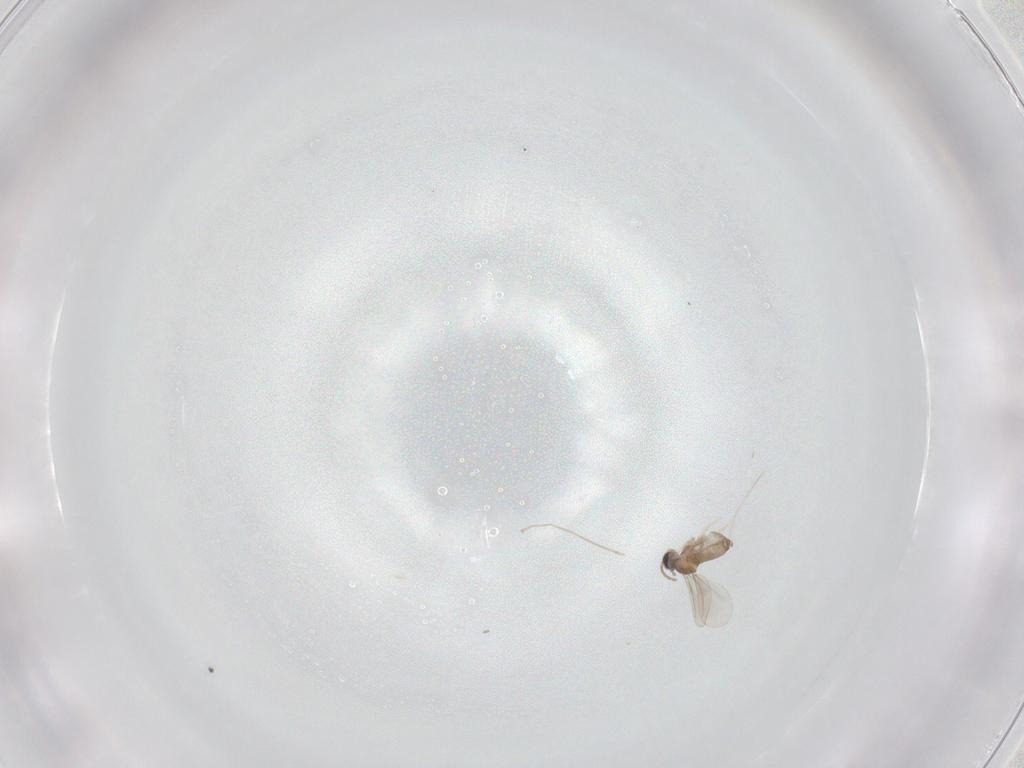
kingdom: Animalia
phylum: Arthropoda
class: Insecta
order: Diptera
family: Cecidomyiidae
